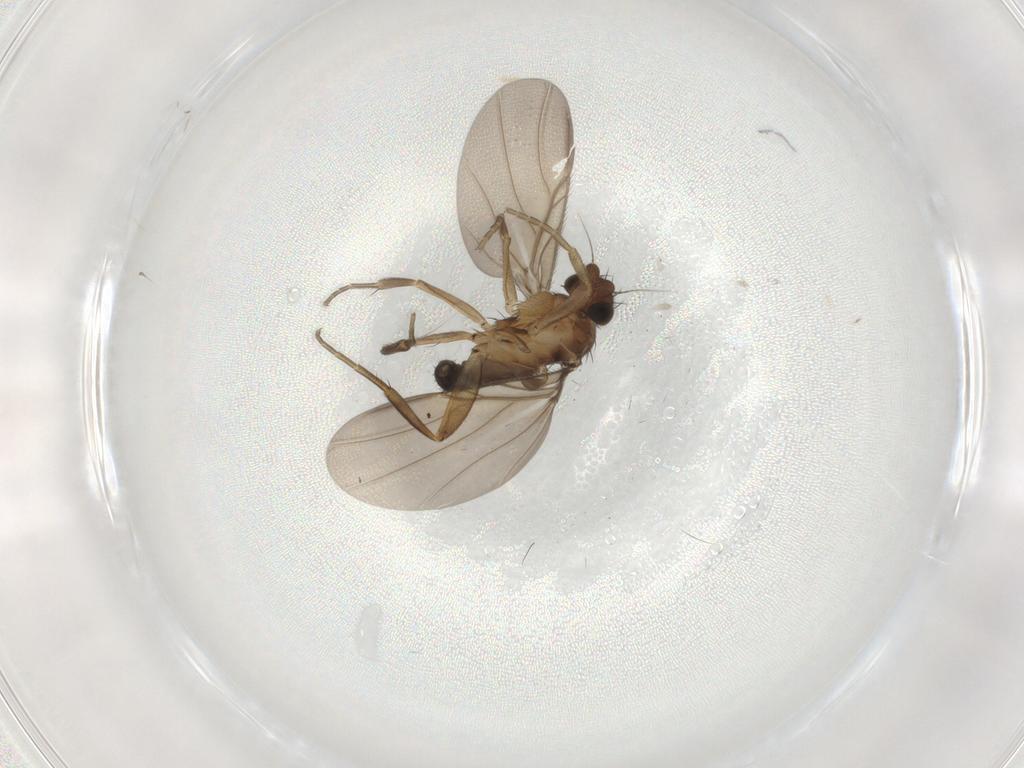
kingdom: Animalia
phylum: Arthropoda
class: Insecta
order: Diptera
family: Phoridae
